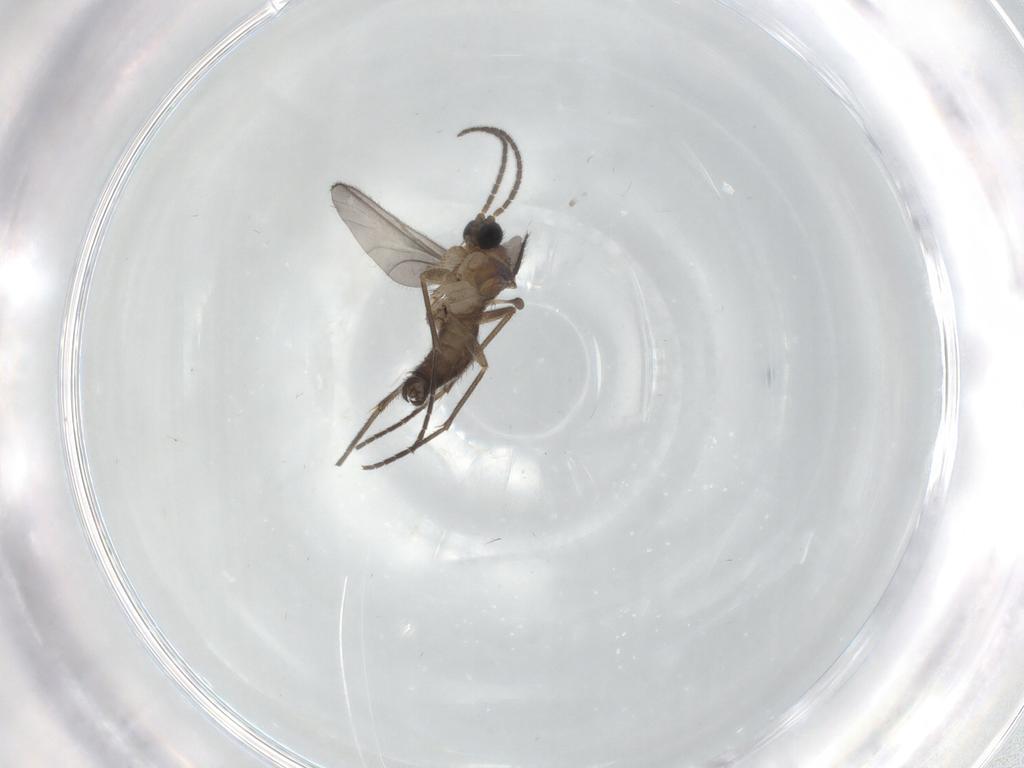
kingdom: Animalia
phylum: Arthropoda
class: Insecta
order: Diptera
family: Sciaridae
